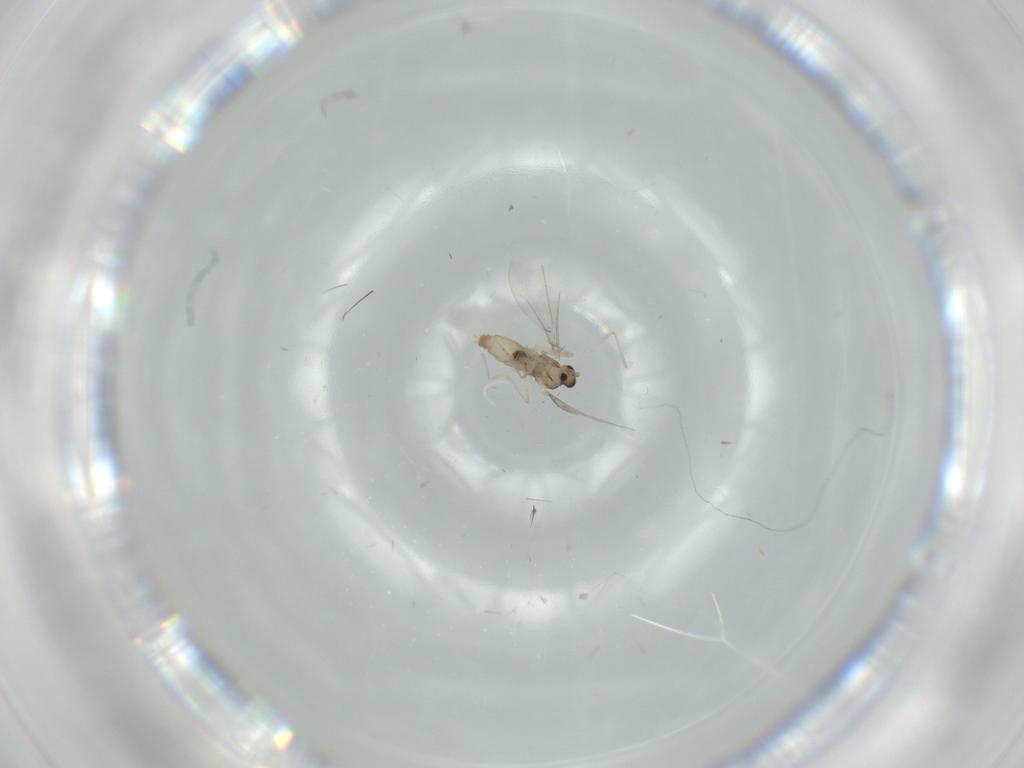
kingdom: Animalia
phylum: Arthropoda
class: Insecta
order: Diptera
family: Cecidomyiidae
